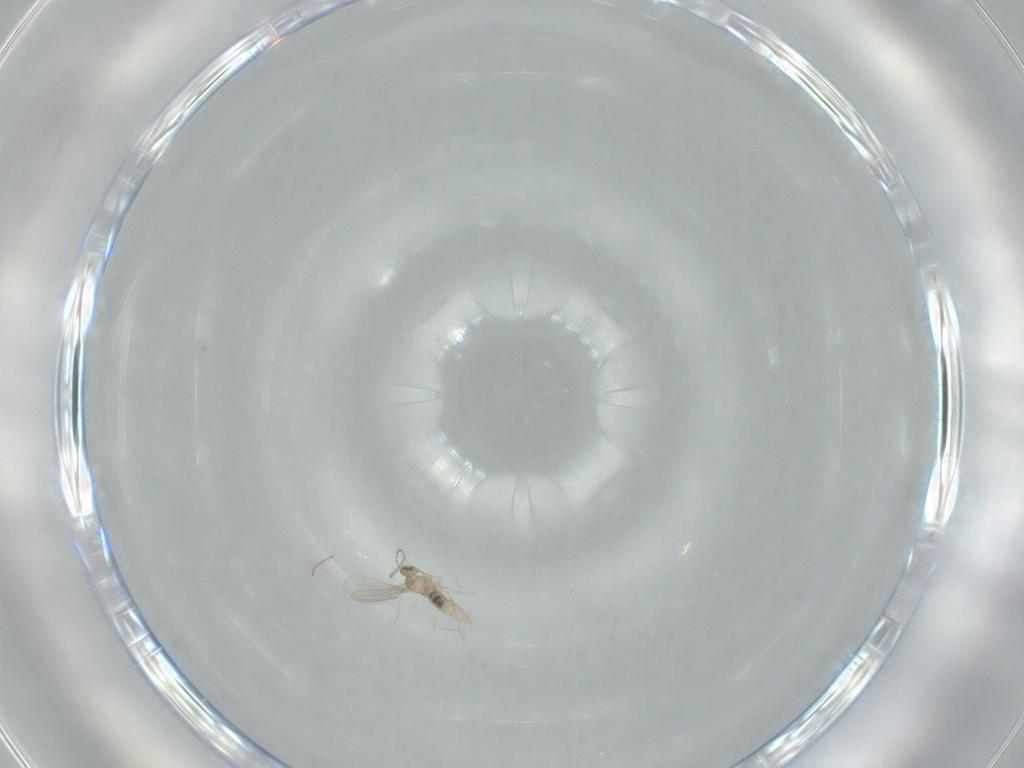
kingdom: Animalia
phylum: Arthropoda
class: Insecta
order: Diptera
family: Cecidomyiidae
